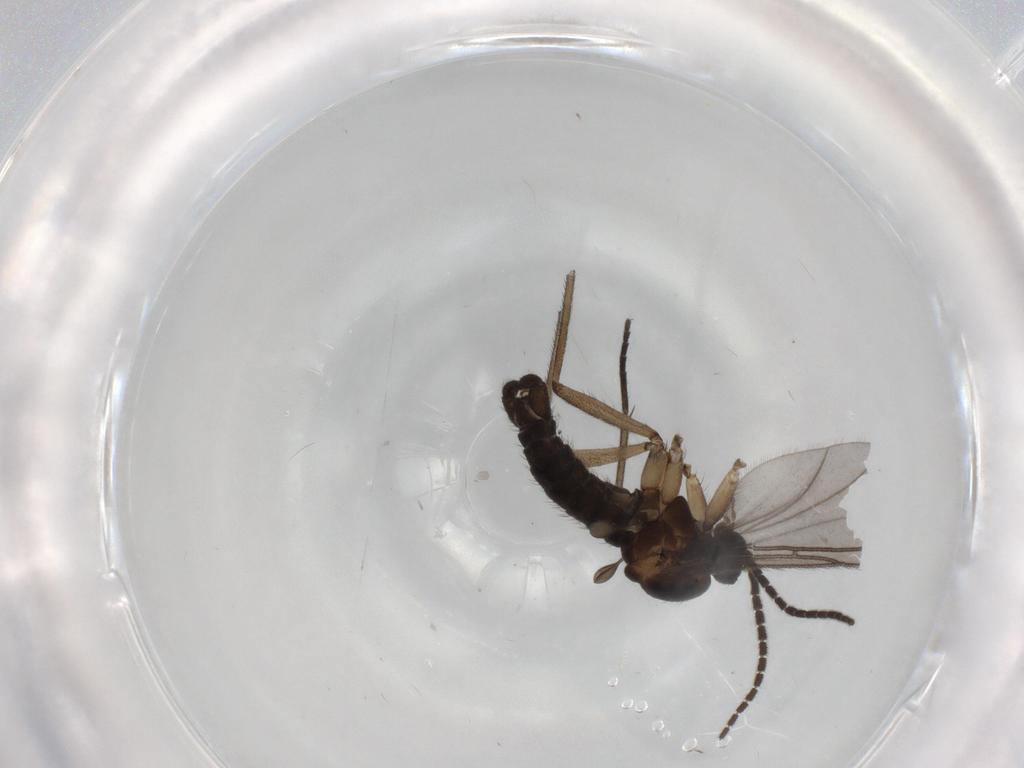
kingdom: Animalia
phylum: Arthropoda
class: Insecta
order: Diptera
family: Sciaridae
